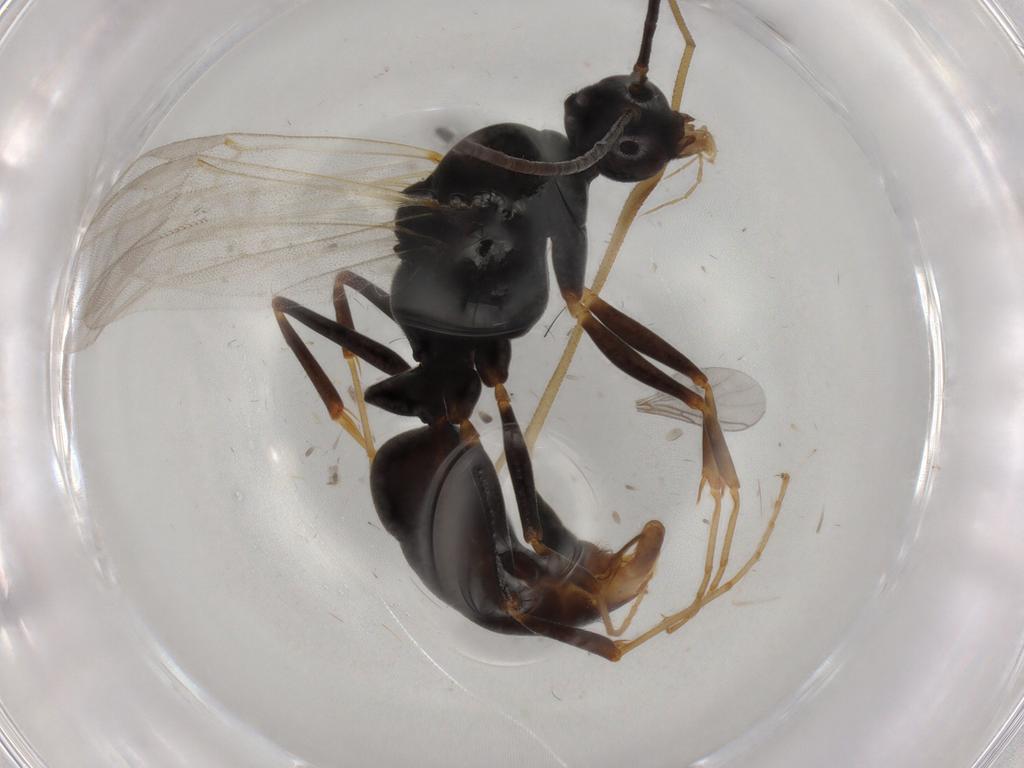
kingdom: Animalia
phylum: Arthropoda
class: Insecta
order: Hymenoptera
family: Formicidae
